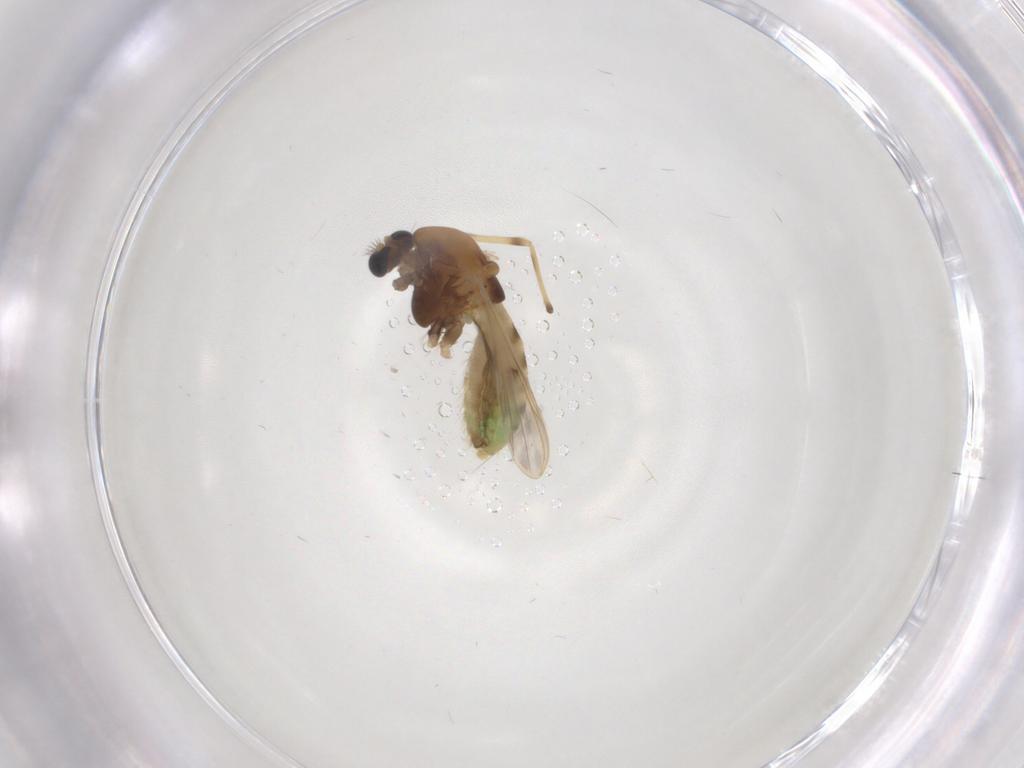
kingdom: Animalia
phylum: Arthropoda
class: Insecta
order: Diptera
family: Chironomidae
